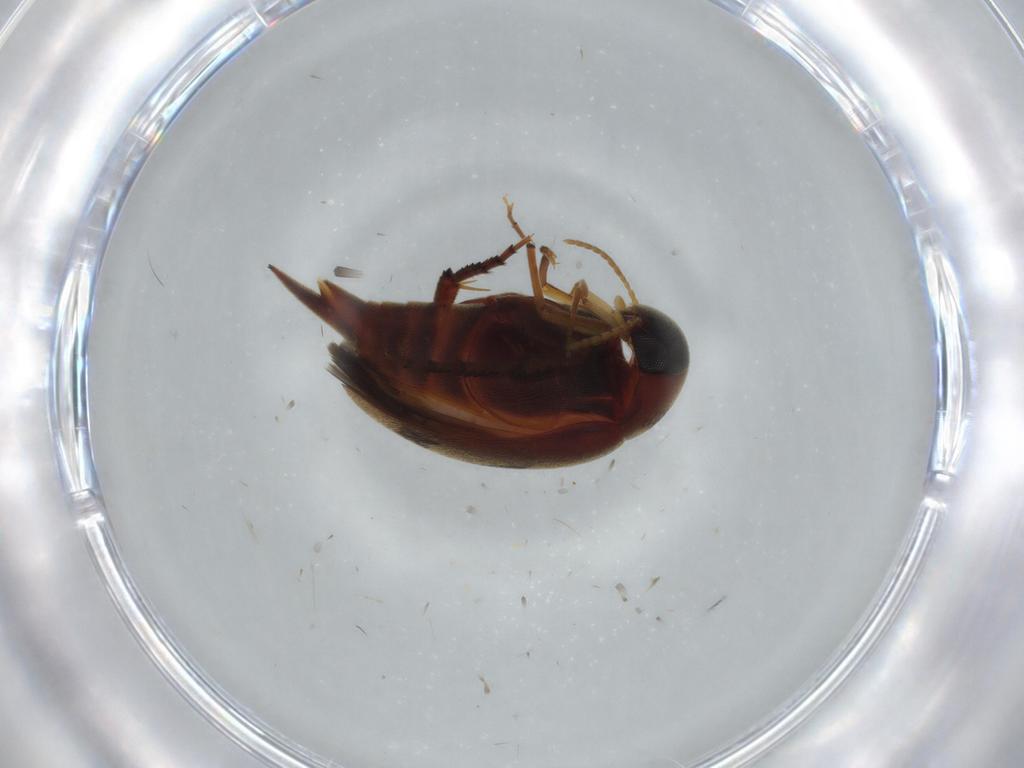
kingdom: Animalia
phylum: Arthropoda
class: Insecta
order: Coleoptera
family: Mordellidae
